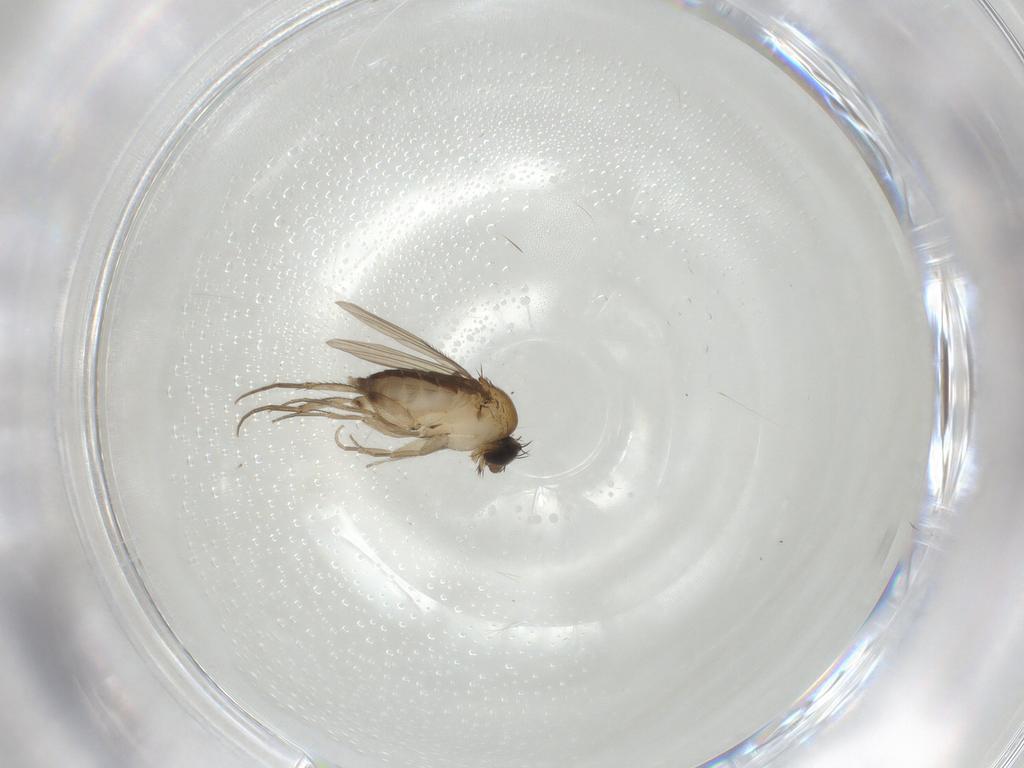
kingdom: Animalia
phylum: Arthropoda
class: Insecta
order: Diptera
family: Phoridae
